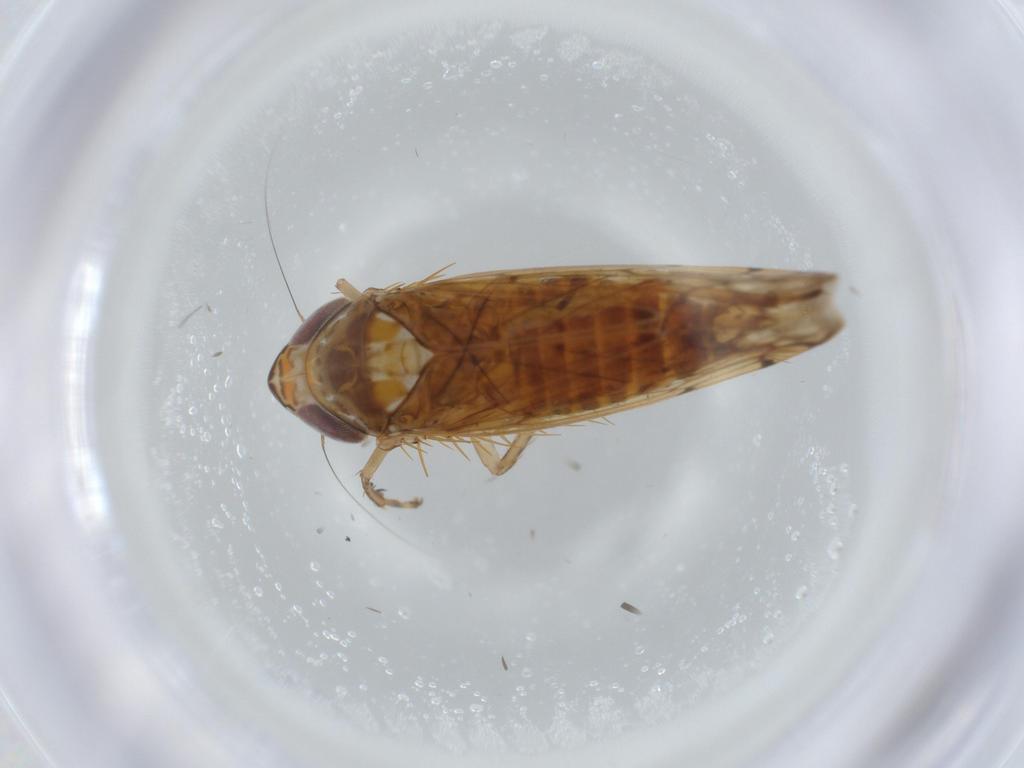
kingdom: Animalia
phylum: Arthropoda
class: Insecta
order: Hemiptera
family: Cicadellidae
